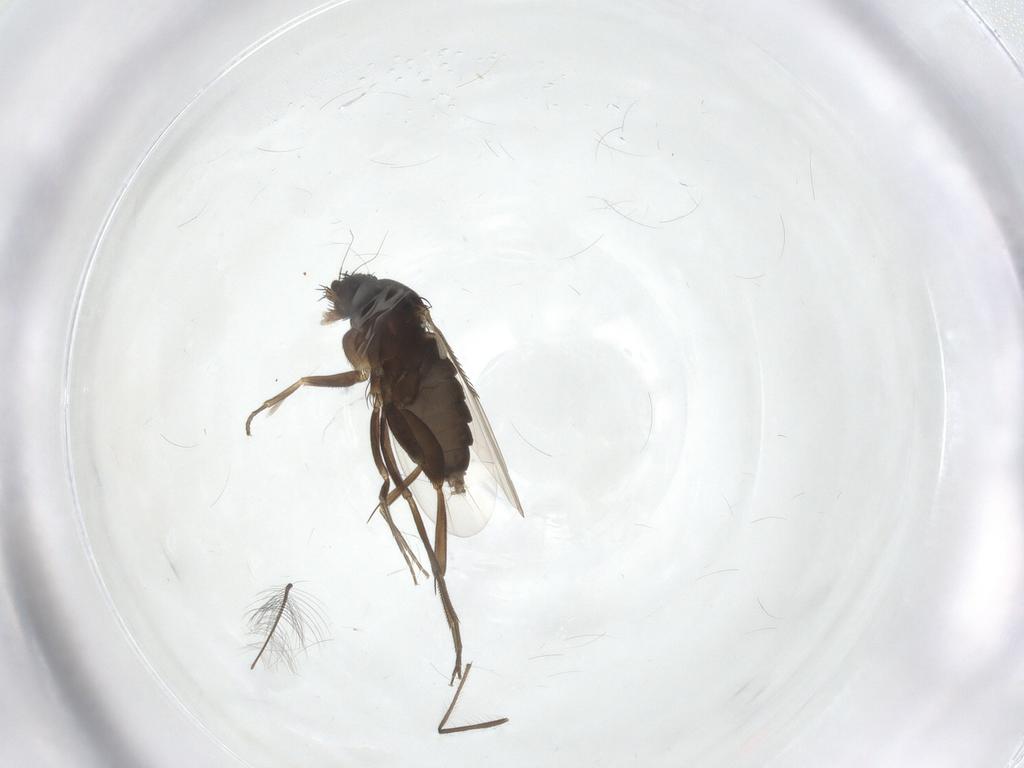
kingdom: Animalia
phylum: Arthropoda
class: Insecta
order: Diptera
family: Phoridae
